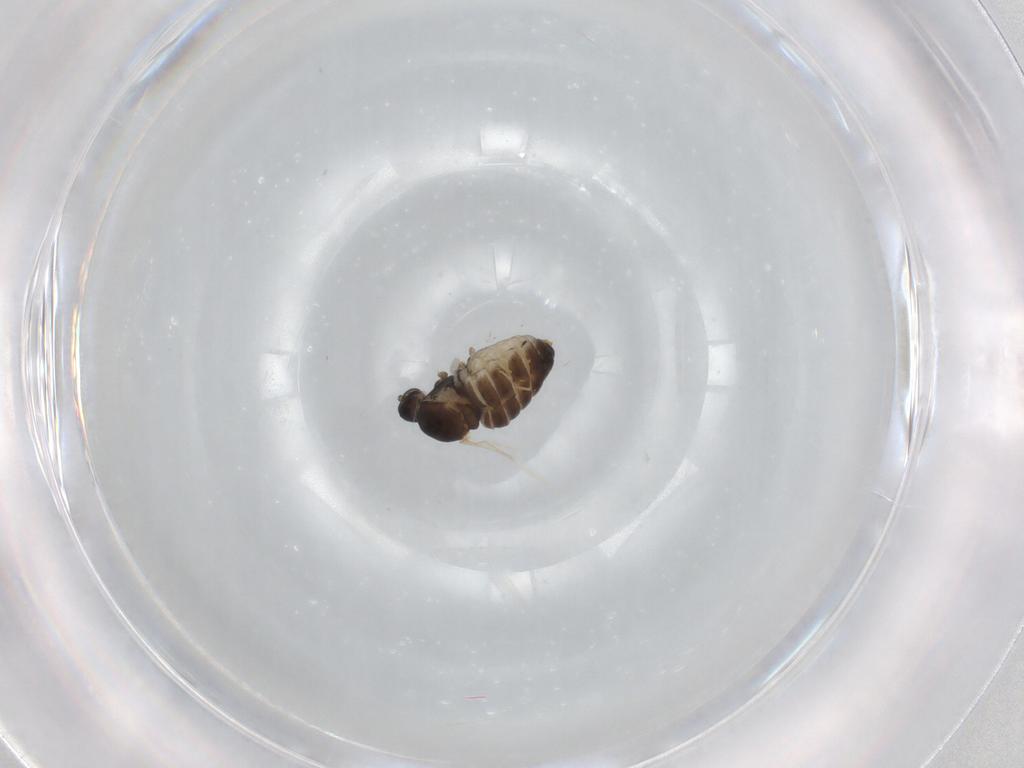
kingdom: Animalia
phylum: Arthropoda
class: Insecta
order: Diptera
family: Cecidomyiidae
